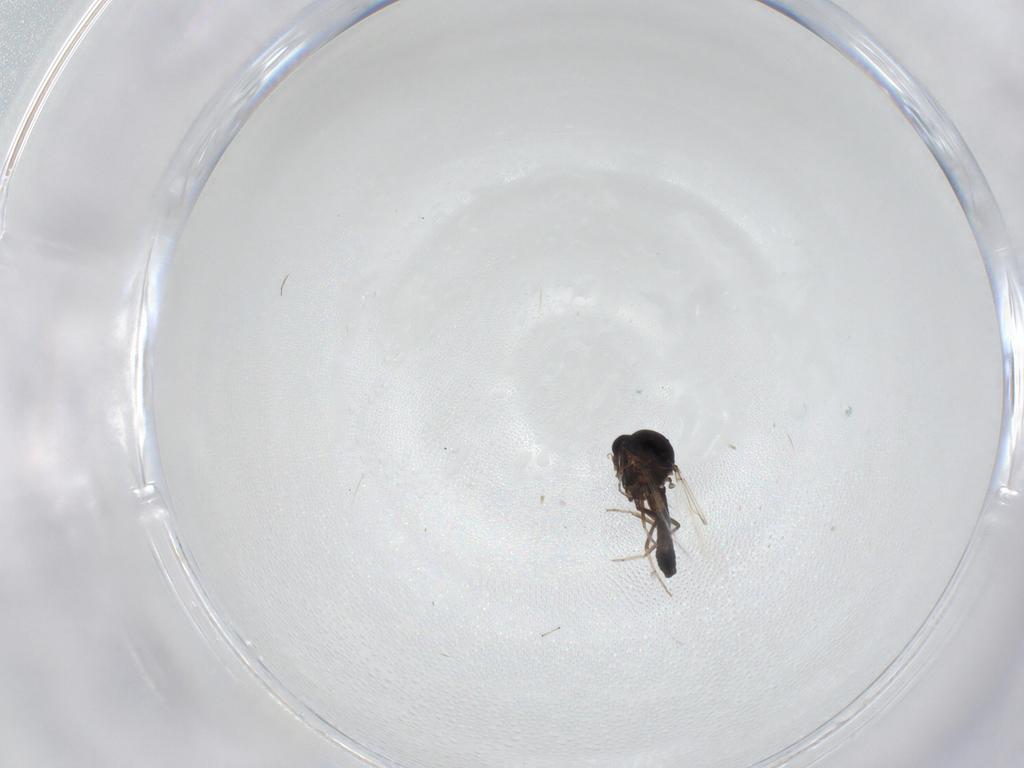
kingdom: Animalia
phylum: Arthropoda
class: Insecta
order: Diptera
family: Ceratopogonidae
